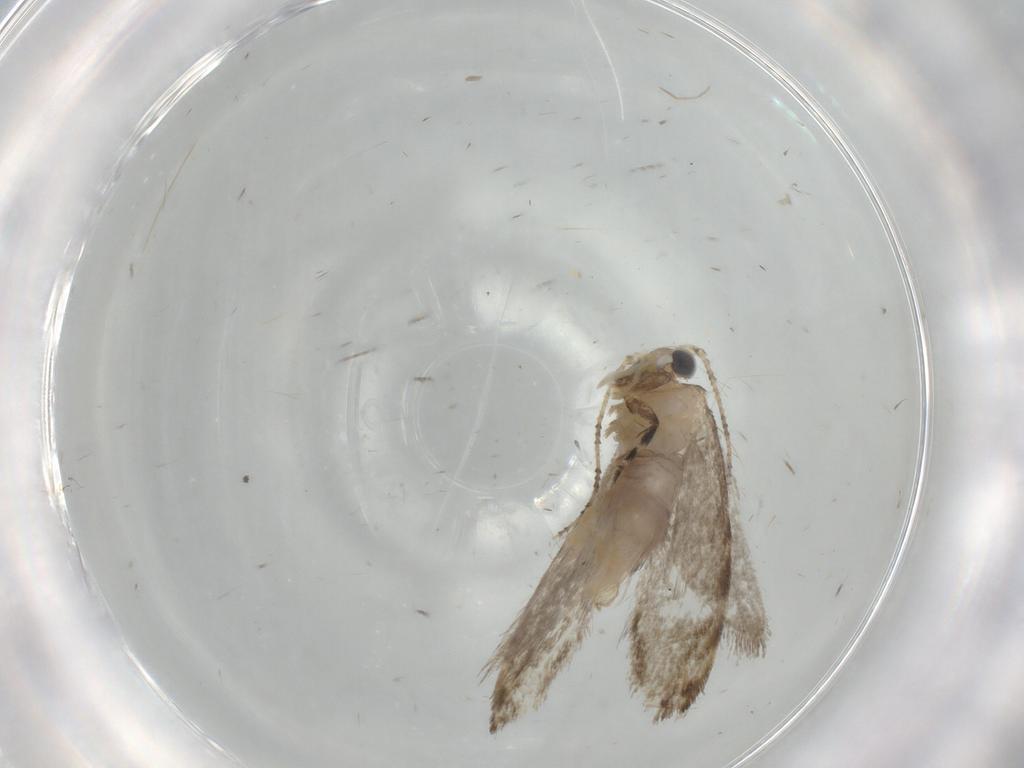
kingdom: Animalia
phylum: Arthropoda
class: Insecta
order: Lepidoptera
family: Tineidae
